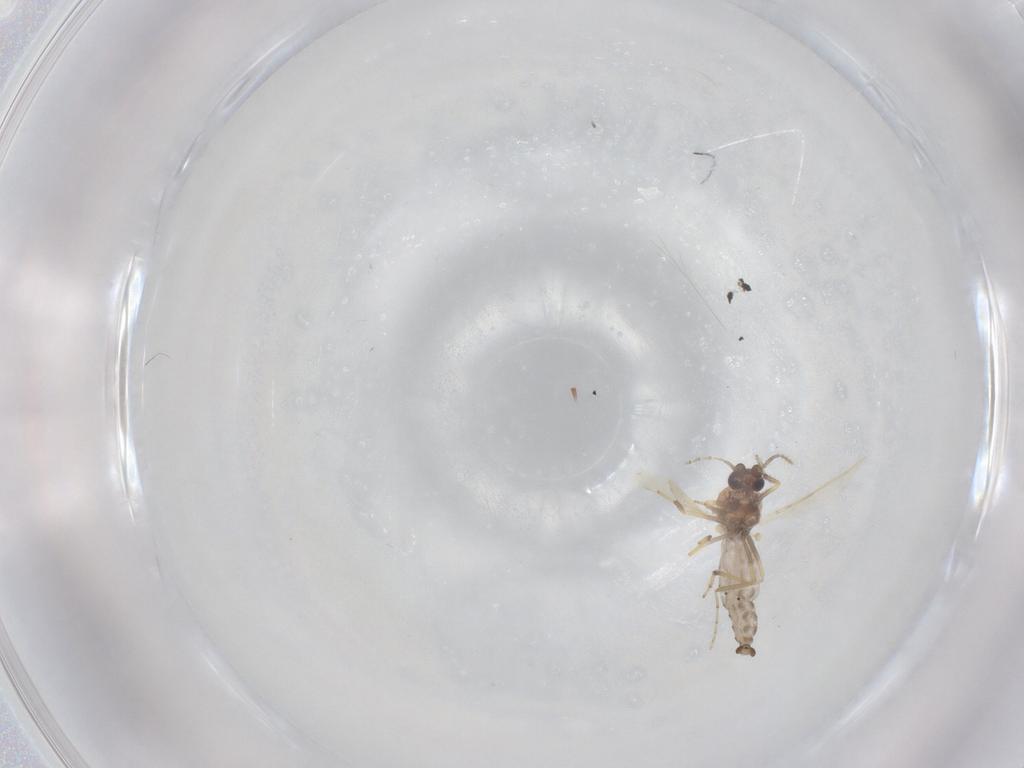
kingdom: Animalia
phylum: Arthropoda
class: Insecta
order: Diptera
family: Ceratopogonidae
